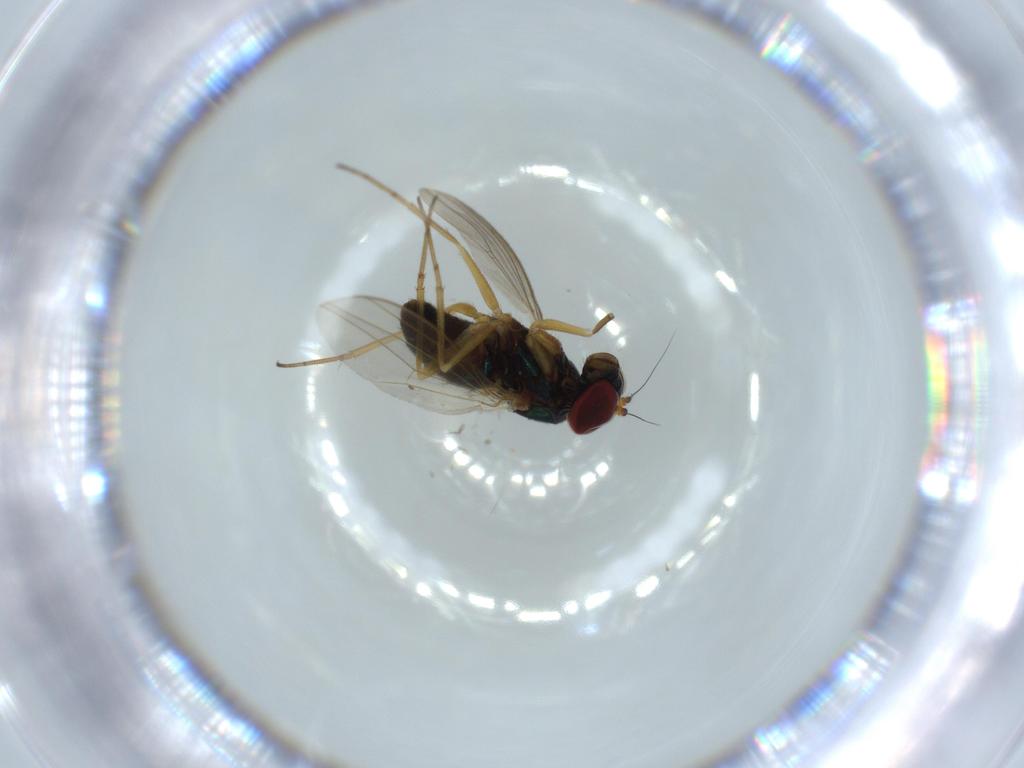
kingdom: Animalia
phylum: Arthropoda
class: Insecta
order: Diptera
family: Dolichopodidae
